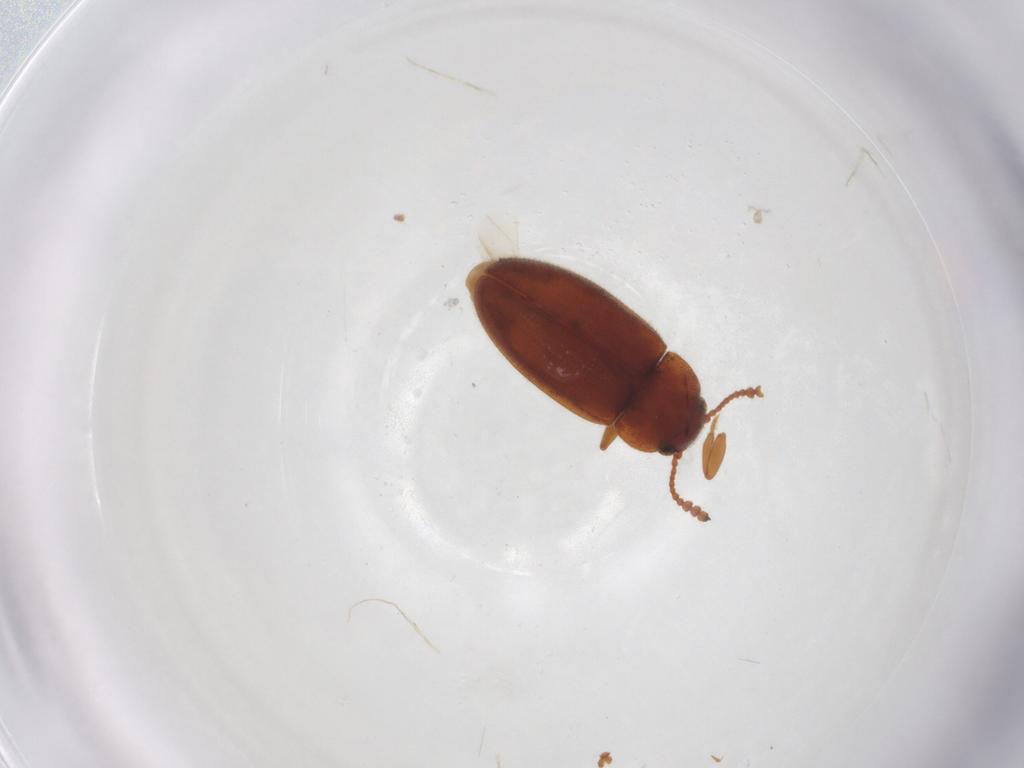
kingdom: Animalia
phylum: Arthropoda
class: Insecta
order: Coleoptera
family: Erotylidae
